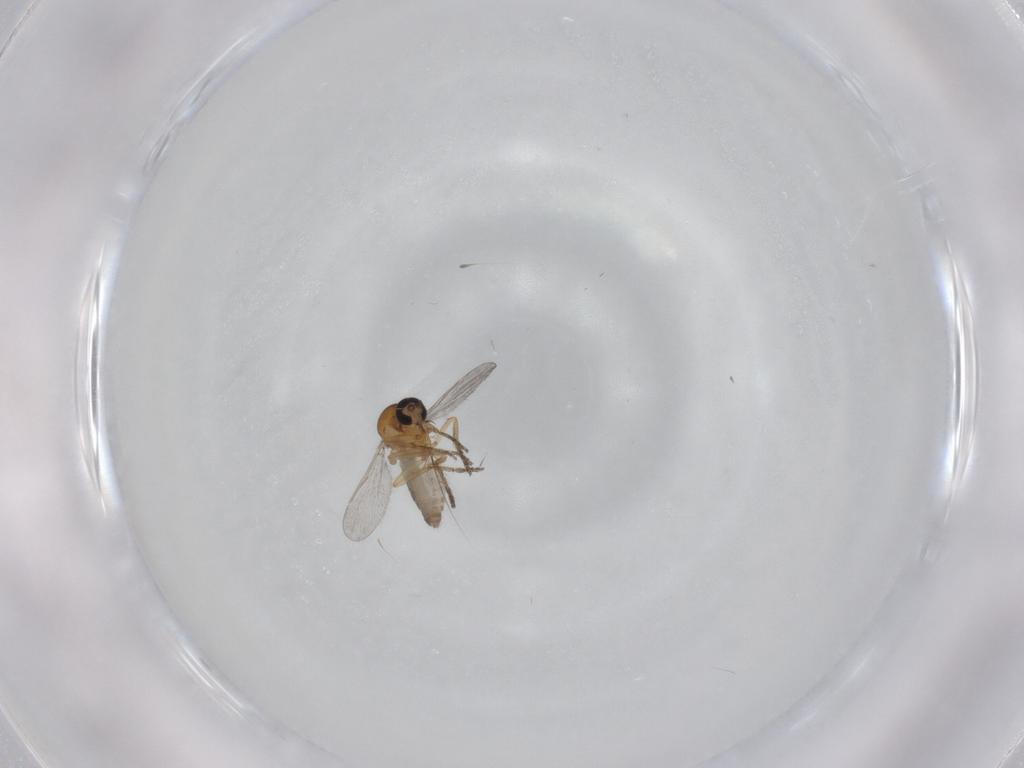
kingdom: Animalia
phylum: Arthropoda
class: Insecta
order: Diptera
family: Ceratopogonidae
